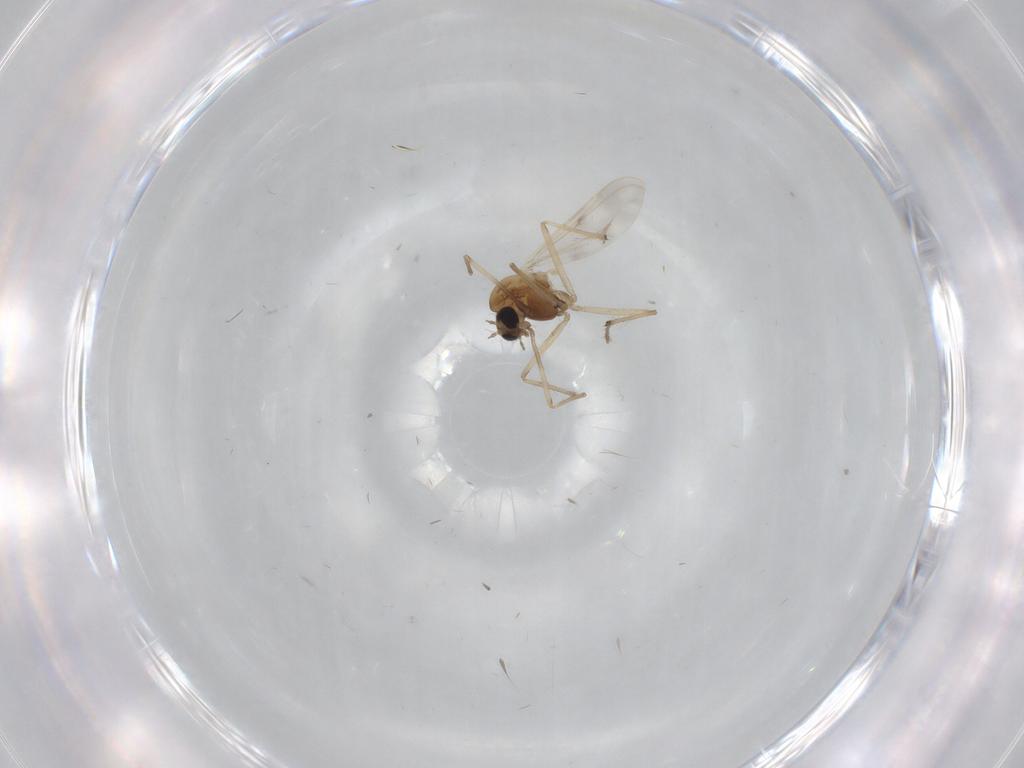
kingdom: Animalia
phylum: Arthropoda
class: Insecta
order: Diptera
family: Chironomidae
